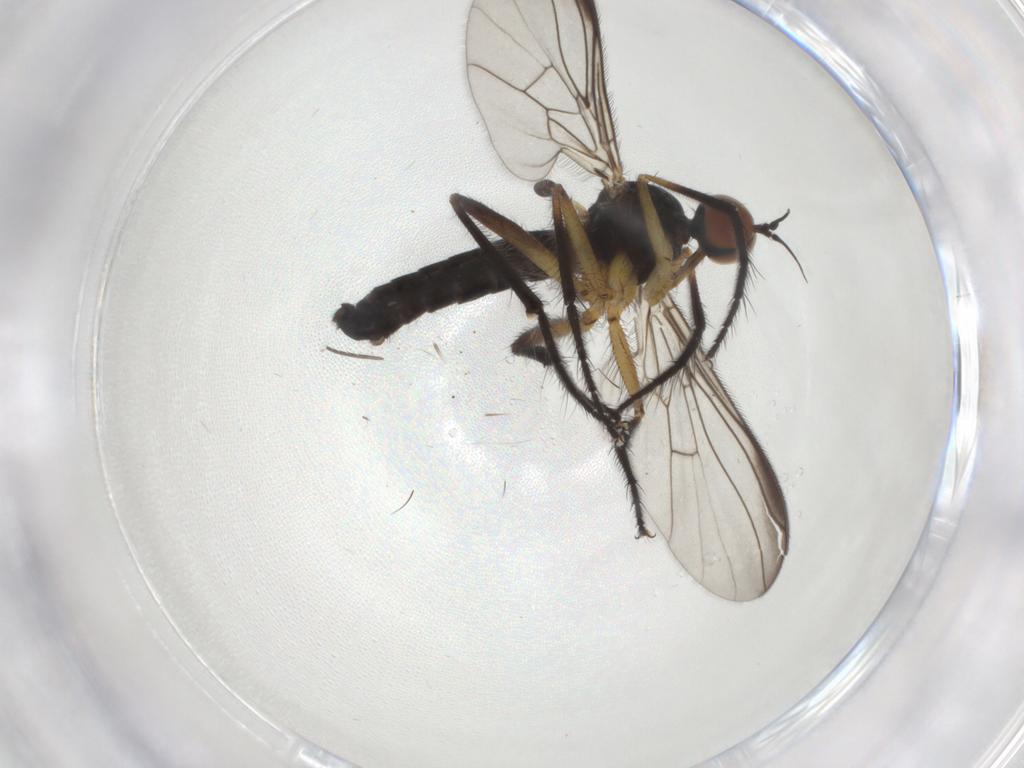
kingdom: Animalia
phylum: Arthropoda
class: Insecta
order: Diptera
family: Empididae
